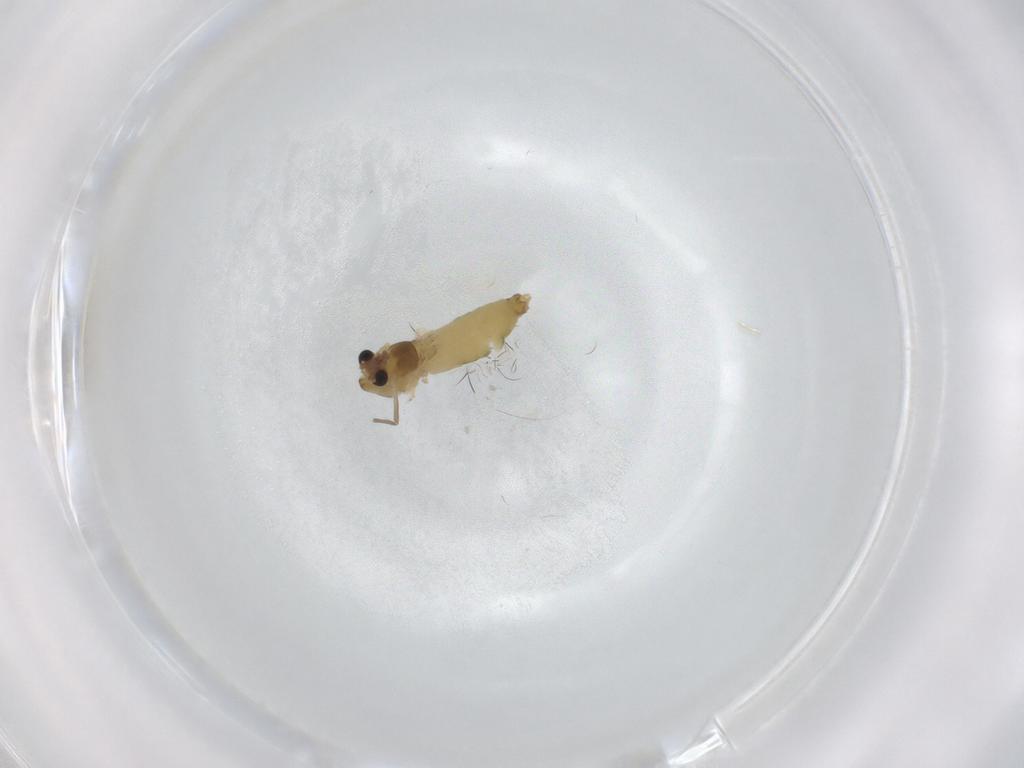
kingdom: Animalia
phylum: Arthropoda
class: Insecta
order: Diptera
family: Chironomidae
